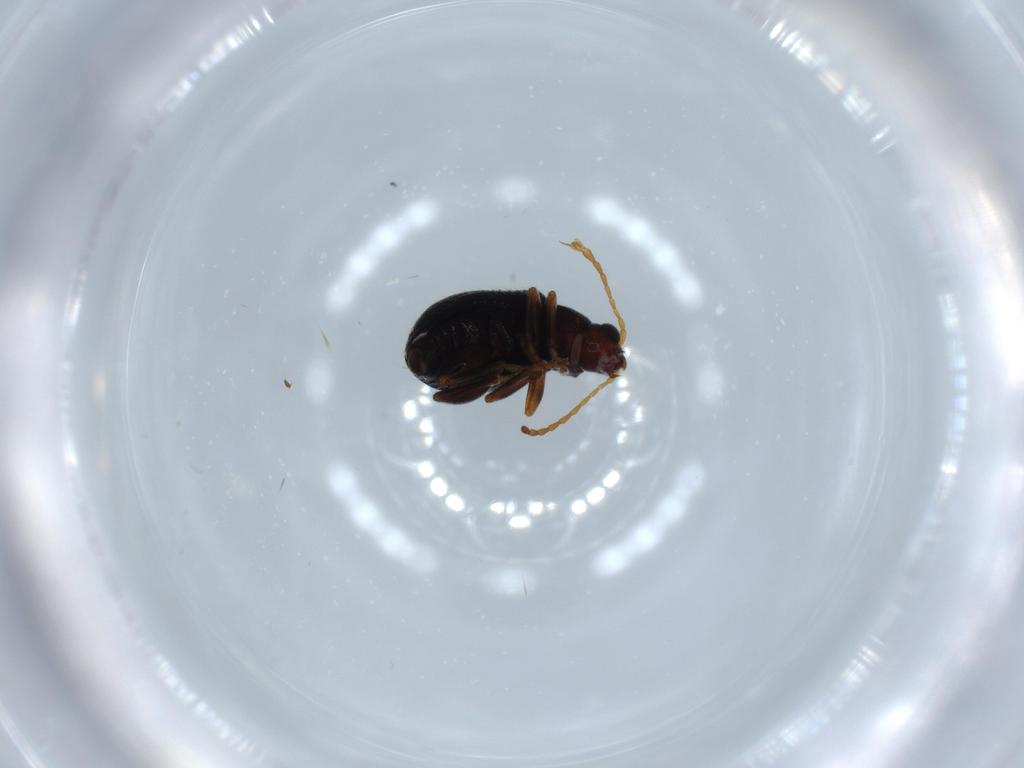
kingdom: Animalia
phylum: Arthropoda
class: Insecta
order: Coleoptera
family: Chrysomelidae
